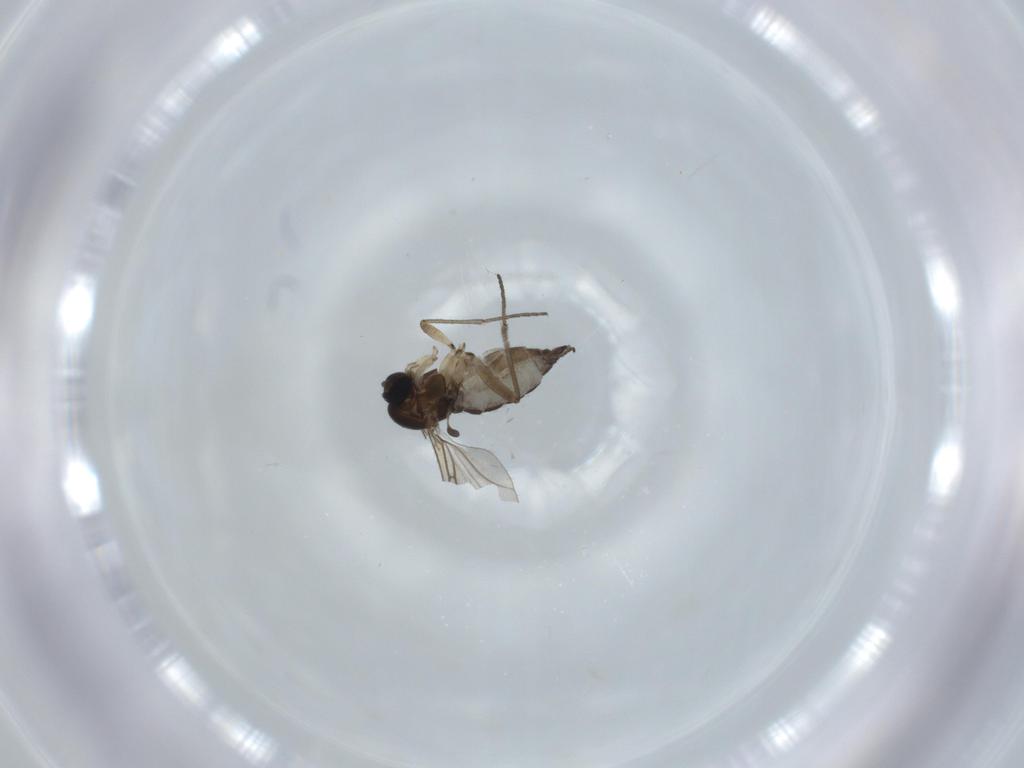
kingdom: Animalia
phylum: Arthropoda
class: Insecta
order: Diptera
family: Sciaridae
